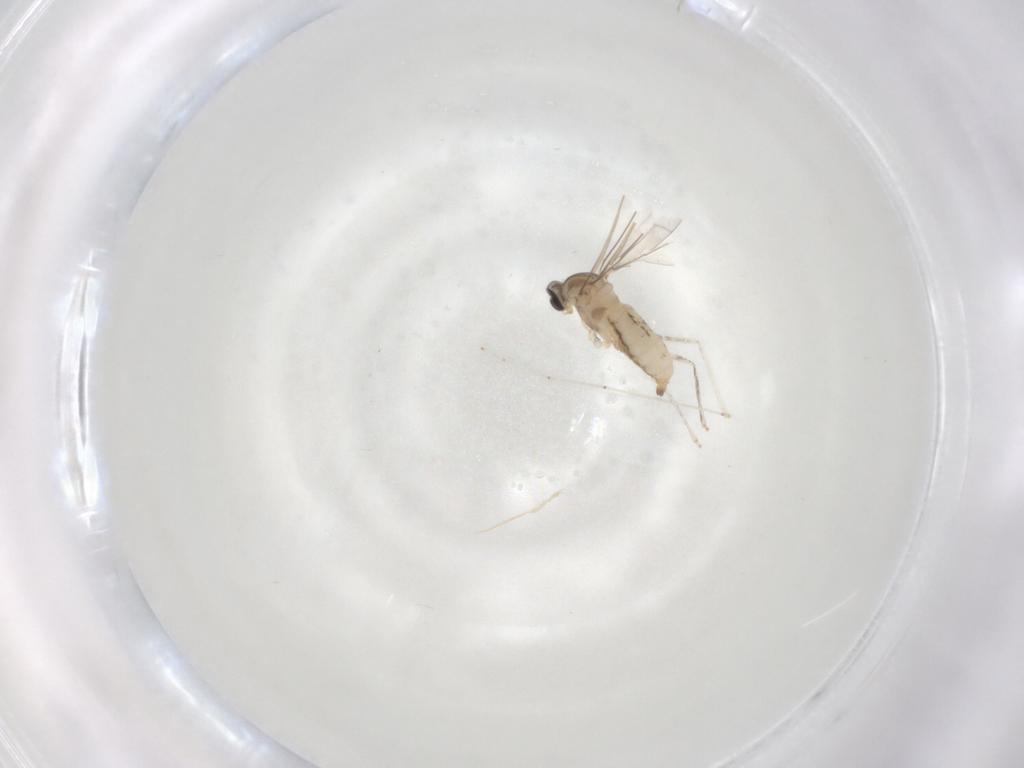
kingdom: Animalia
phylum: Arthropoda
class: Insecta
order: Diptera
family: Cecidomyiidae
